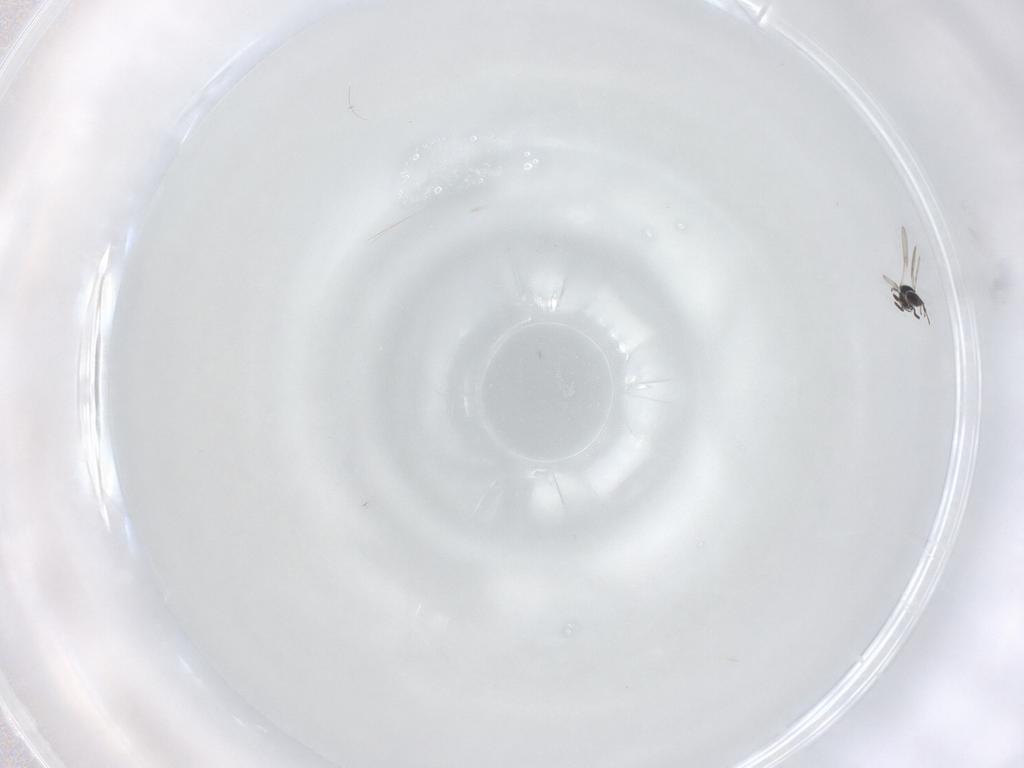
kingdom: Animalia
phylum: Arthropoda
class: Insecta
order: Hymenoptera
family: Scelionidae
